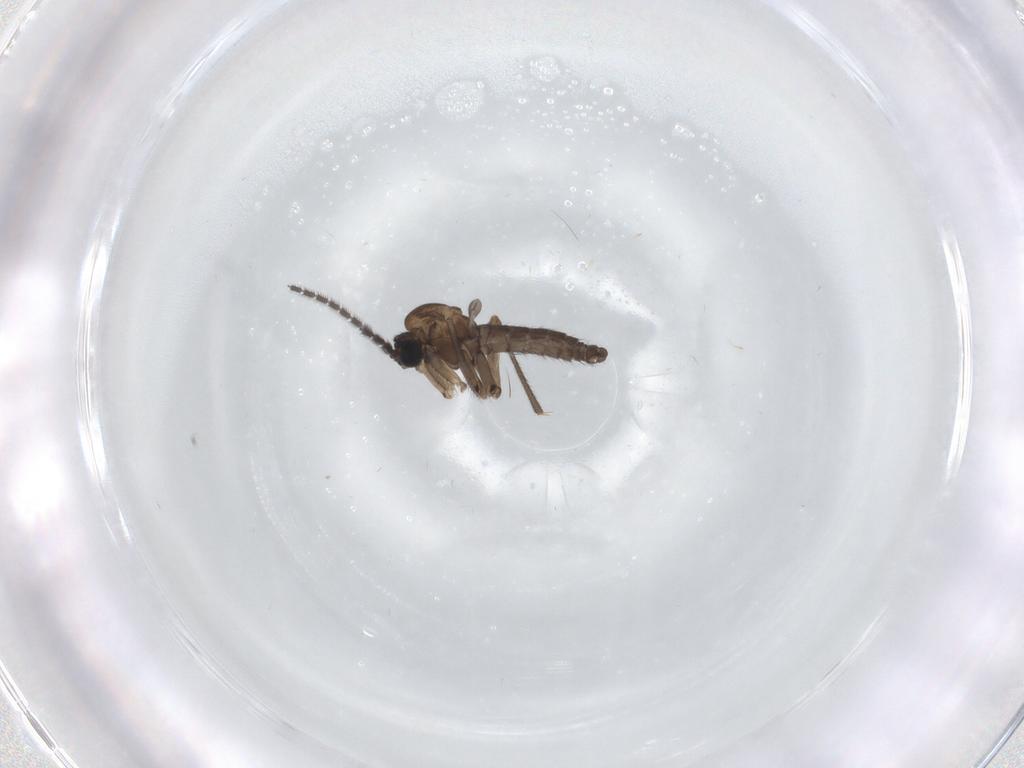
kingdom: Animalia
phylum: Arthropoda
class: Insecta
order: Diptera
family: Sciaridae
